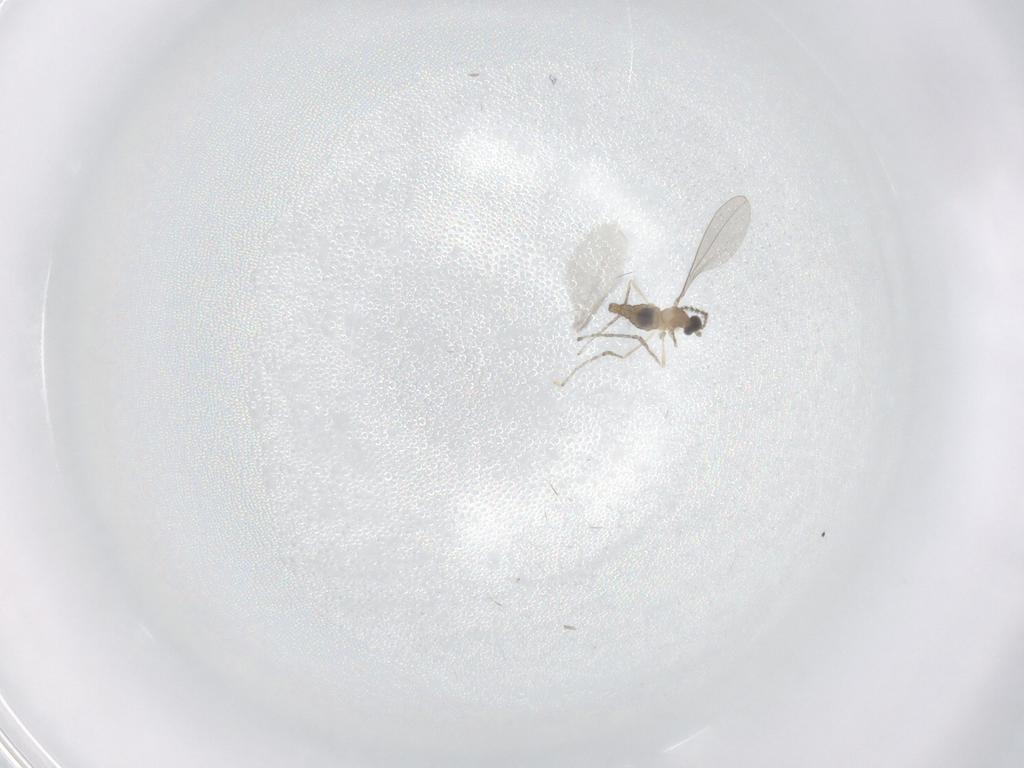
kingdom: Animalia
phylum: Arthropoda
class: Insecta
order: Diptera
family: Cecidomyiidae
